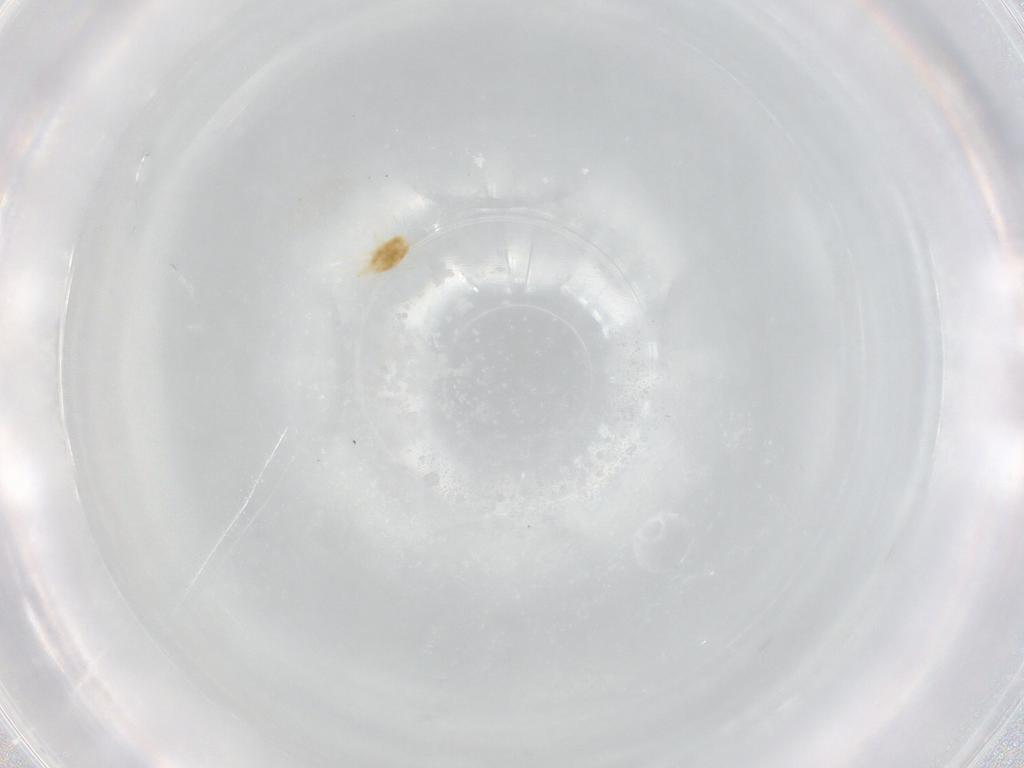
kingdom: Animalia
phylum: Arthropoda
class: Arachnida
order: Mesostigmata
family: Phytoseiidae
